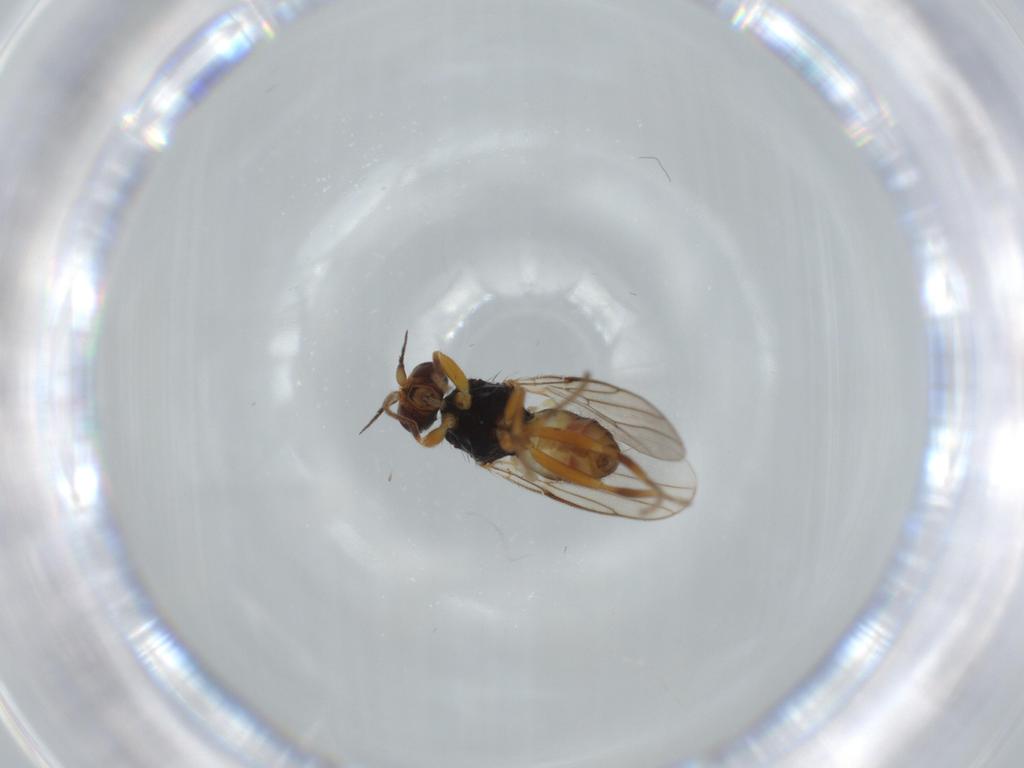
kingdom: Animalia
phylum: Arthropoda
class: Insecta
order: Diptera
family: Chloropidae
